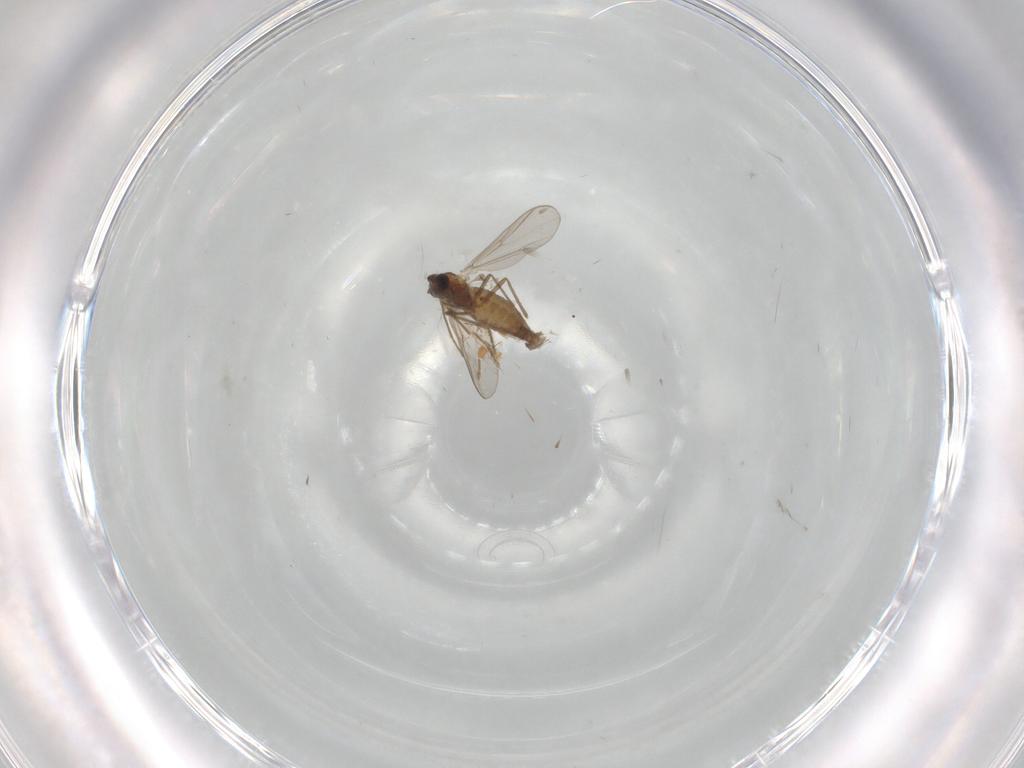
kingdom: Animalia
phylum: Arthropoda
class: Insecta
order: Diptera
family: Chironomidae
